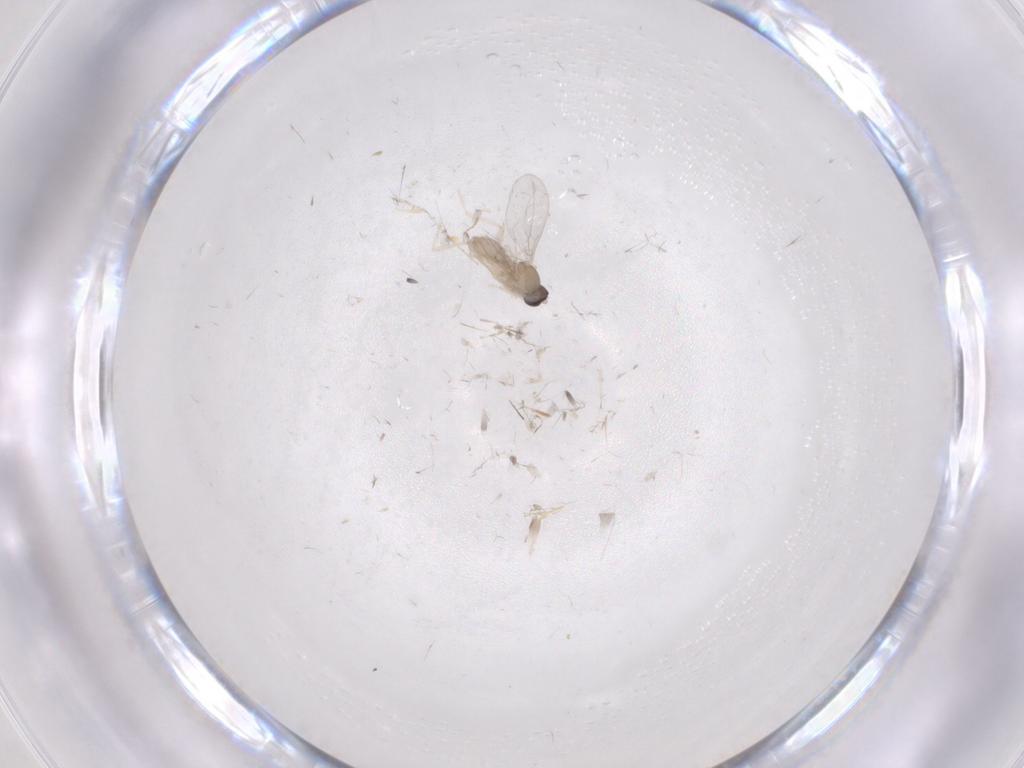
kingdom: Animalia
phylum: Arthropoda
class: Insecta
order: Diptera
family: Cecidomyiidae
